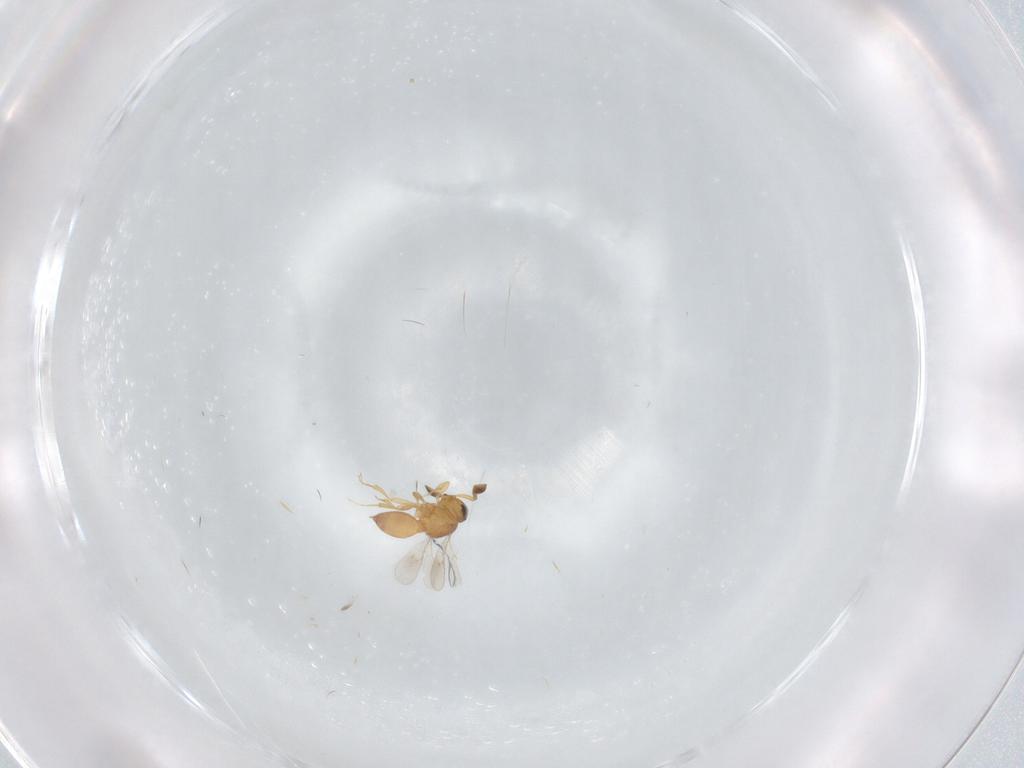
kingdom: Animalia
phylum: Arthropoda
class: Insecta
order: Hymenoptera
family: Scelionidae
